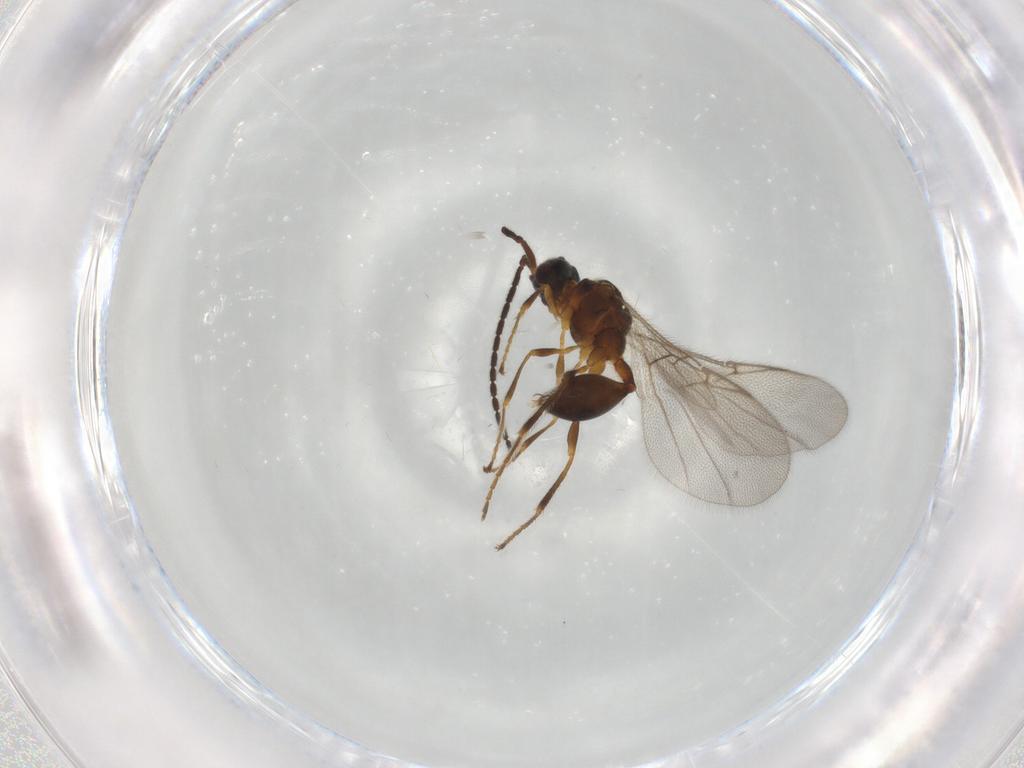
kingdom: Animalia
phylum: Arthropoda
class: Insecta
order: Hymenoptera
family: Diapriidae
